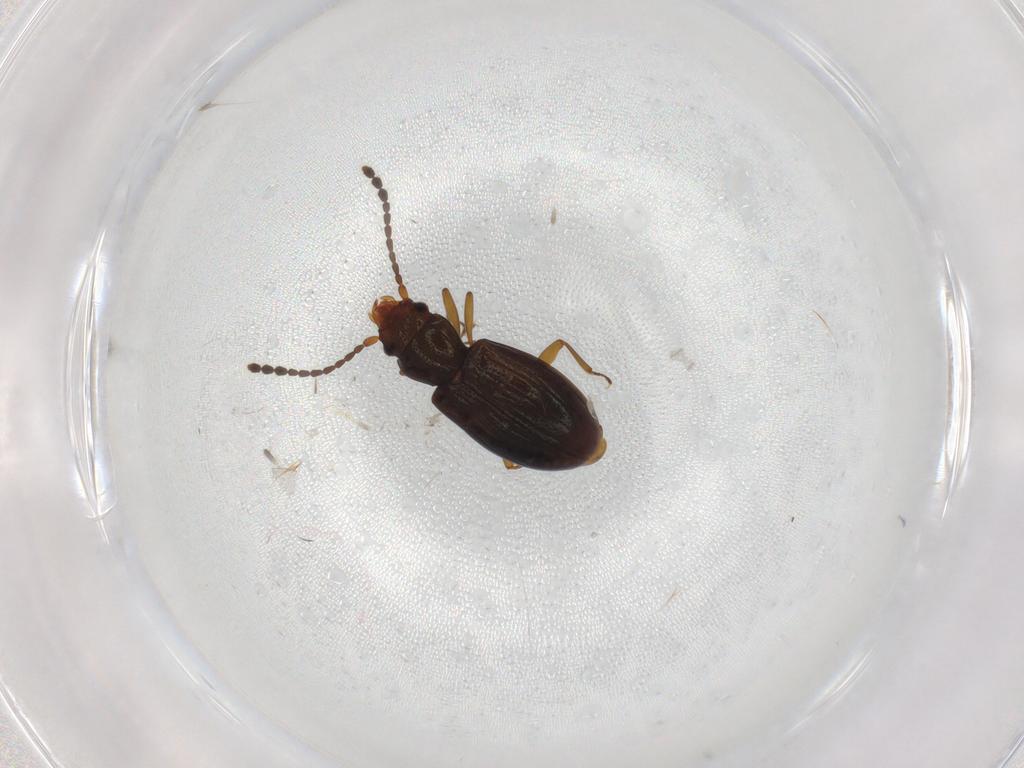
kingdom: Animalia
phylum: Arthropoda
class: Insecta
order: Coleoptera
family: Laemophloeidae
